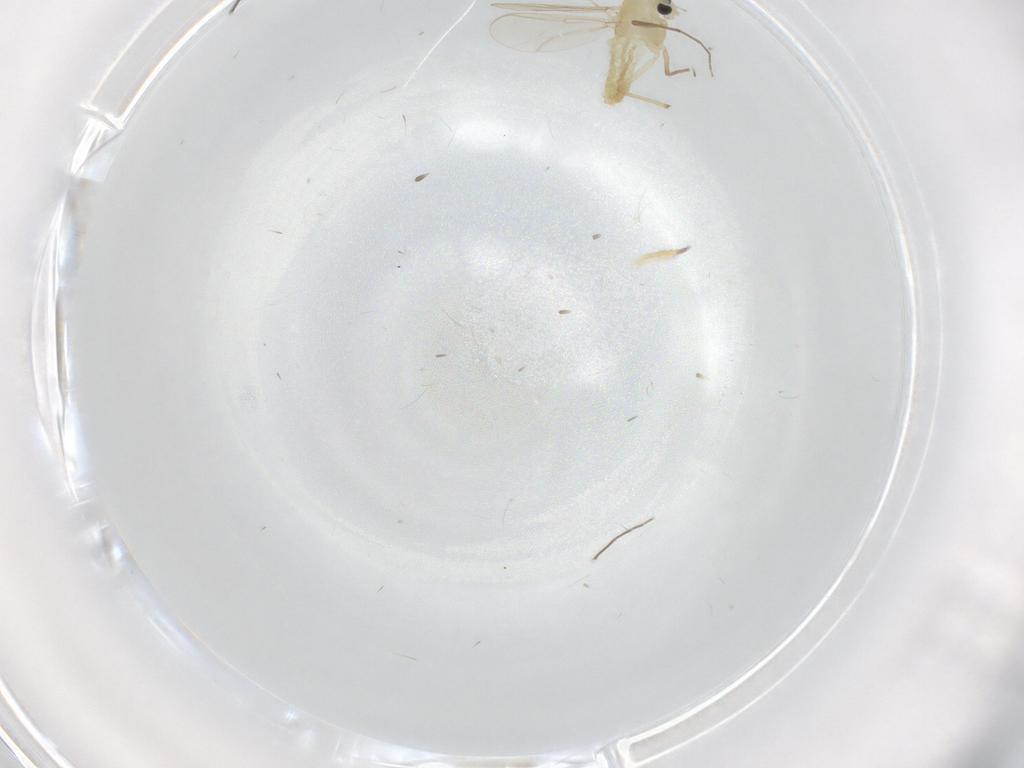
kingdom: Animalia
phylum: Arthropoda
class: Insecta
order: Diptera
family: Chironomidae
